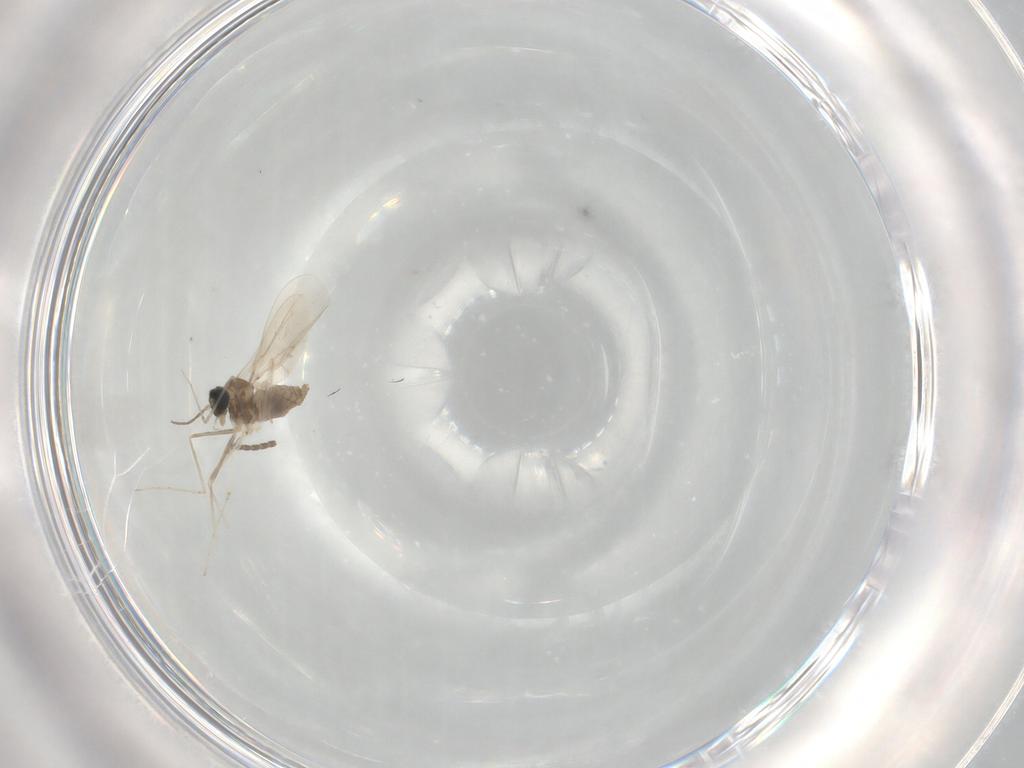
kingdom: Animalia
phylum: Arthropoda
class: Insecta
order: Diptera
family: Cecidomyiidae
